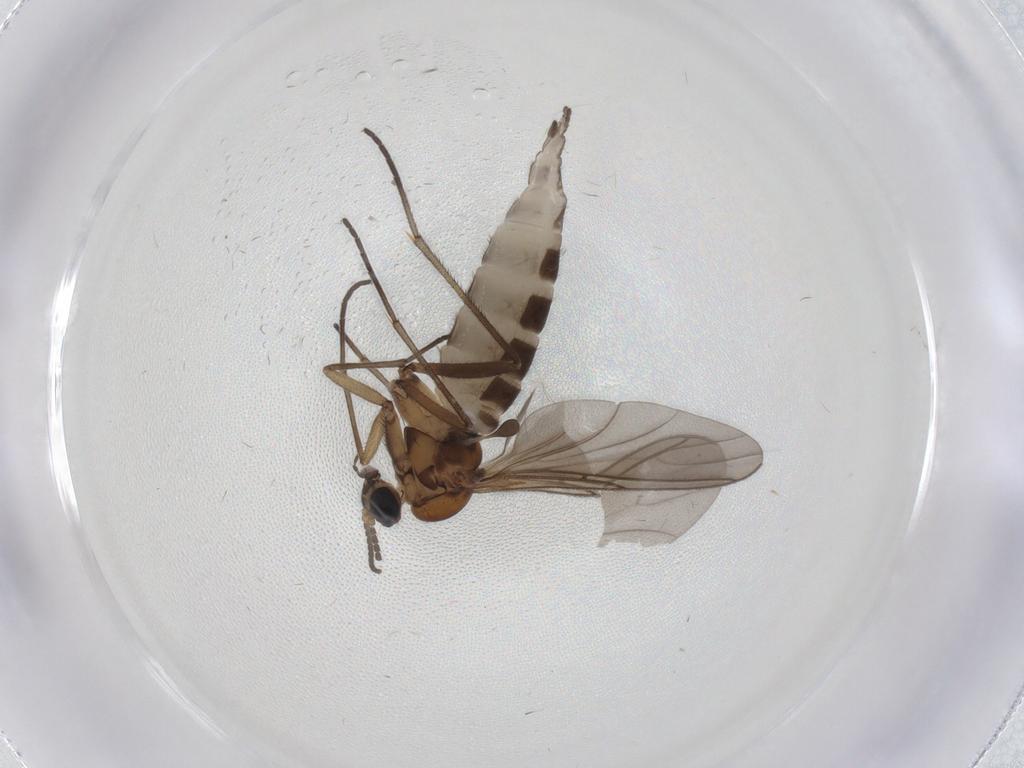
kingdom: Animalia
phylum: Arthropoda
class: Insecta
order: Diptera
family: Sciaridae
